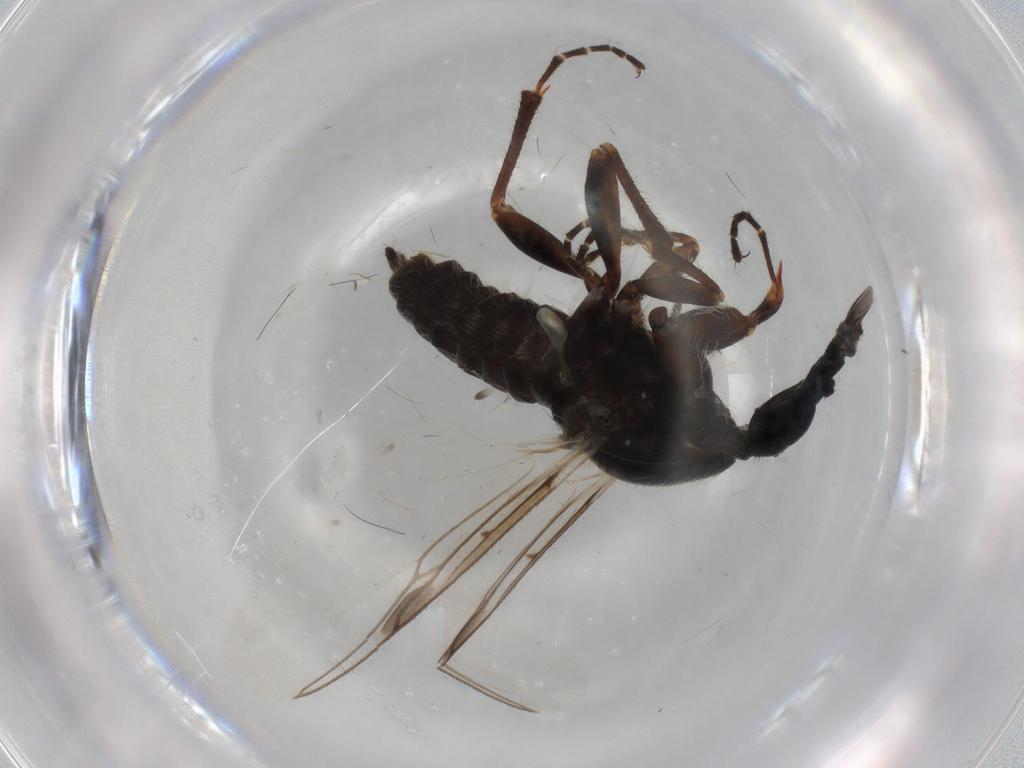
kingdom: Animalia
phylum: Arthropoda
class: Insecta
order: Diptera
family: Bibionidae
